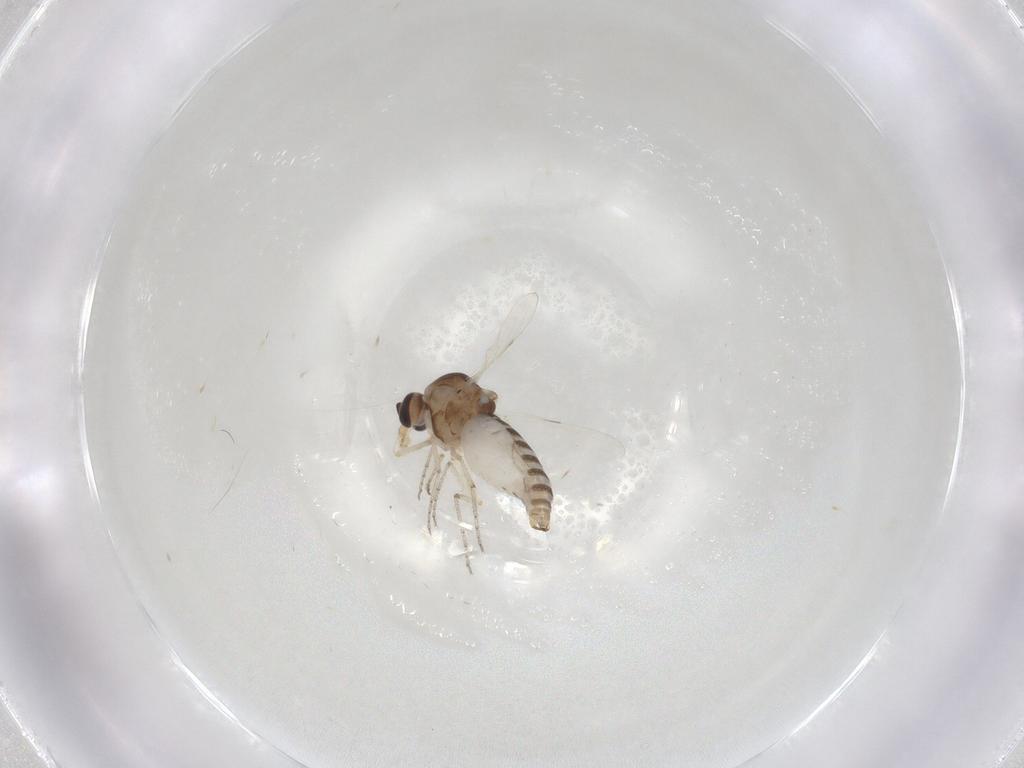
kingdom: Animalia
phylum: Arthropoda
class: Insecta
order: Diptera
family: Ceratopogonidae
